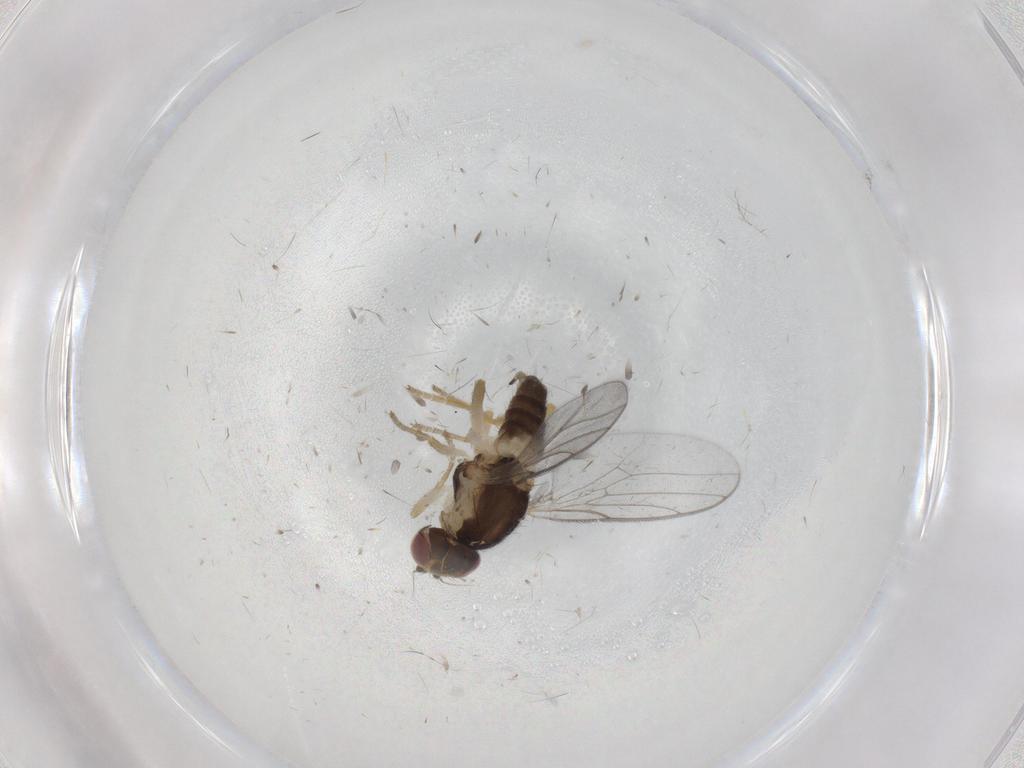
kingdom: Animalia
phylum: Arthropoda
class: Insecta
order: Diptera
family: Chloropidae
